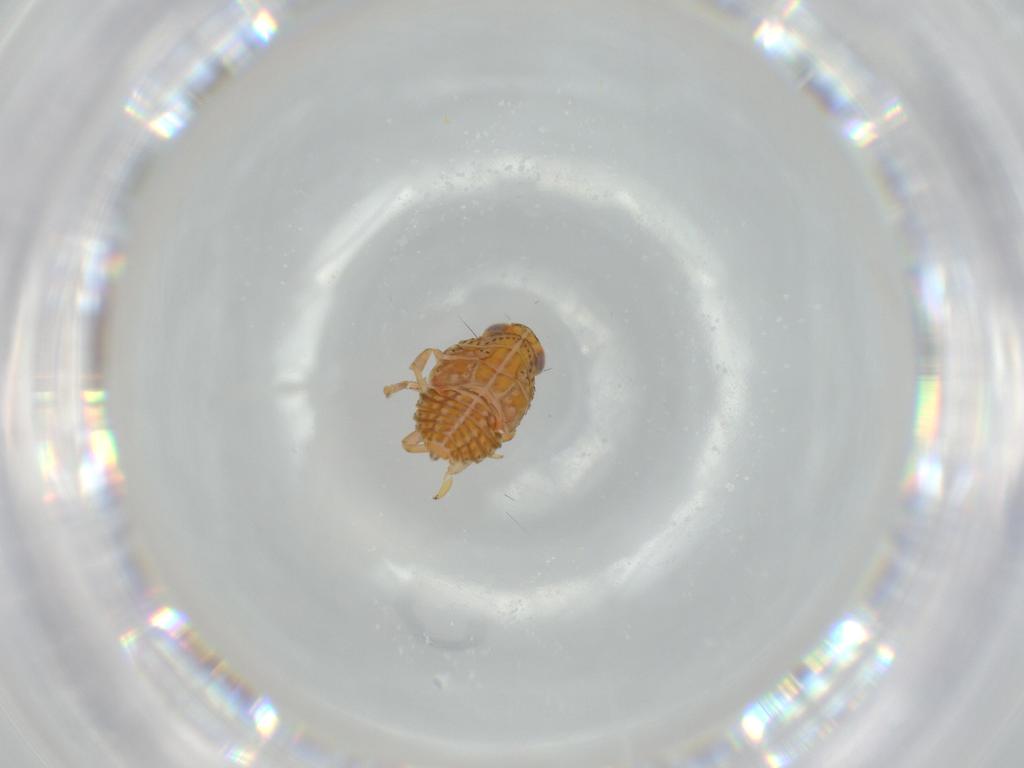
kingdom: Animalia
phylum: Arthropoda
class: Insecta
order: Hemiptera
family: Issidae
